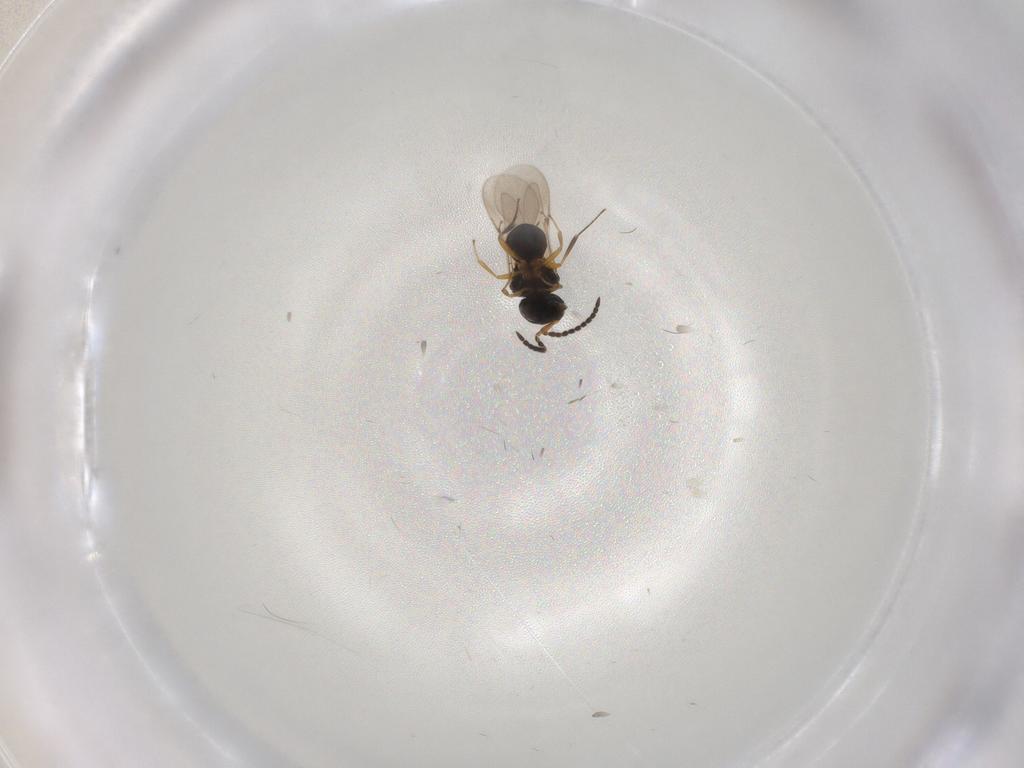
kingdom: Animalia
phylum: Arthropoda
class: Insecta
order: Hymenoptera
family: Scelionidae
